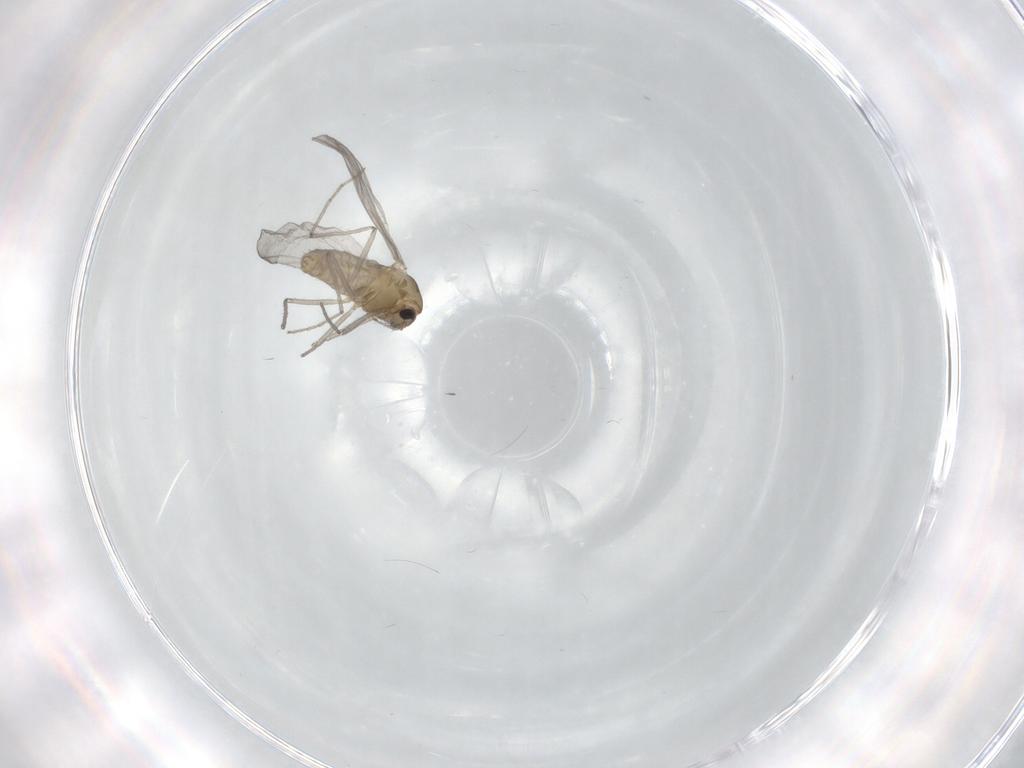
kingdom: Animalia
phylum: Arthropoda
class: Insecta
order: Diptera
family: Chironomidae
